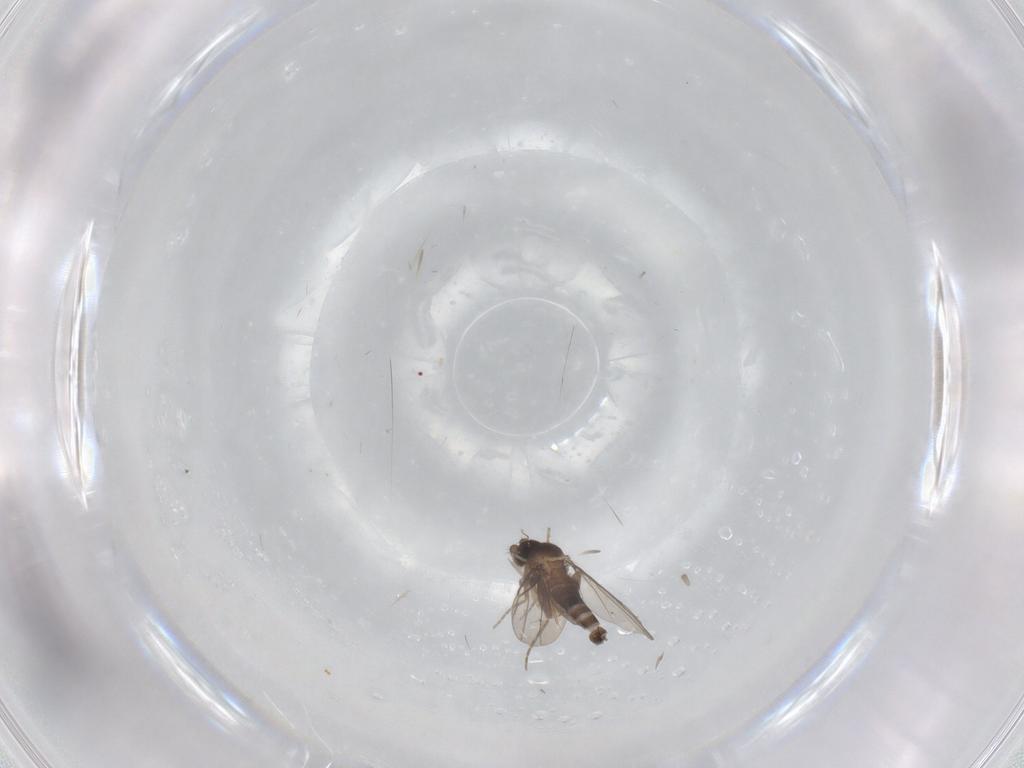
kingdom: Animalia
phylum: Arthropoda
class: Insecta
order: Diptera
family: Phoridae
